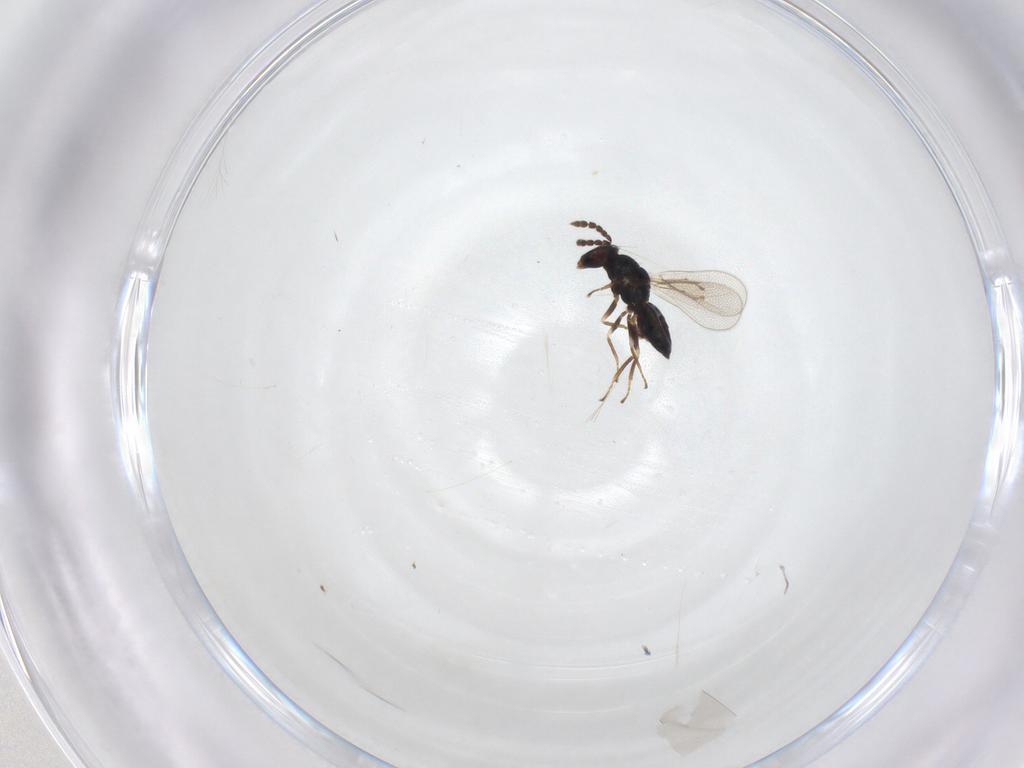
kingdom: Animalia
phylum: Arthropoda
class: Insecta
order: Hymenoptera
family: Eulophidae
